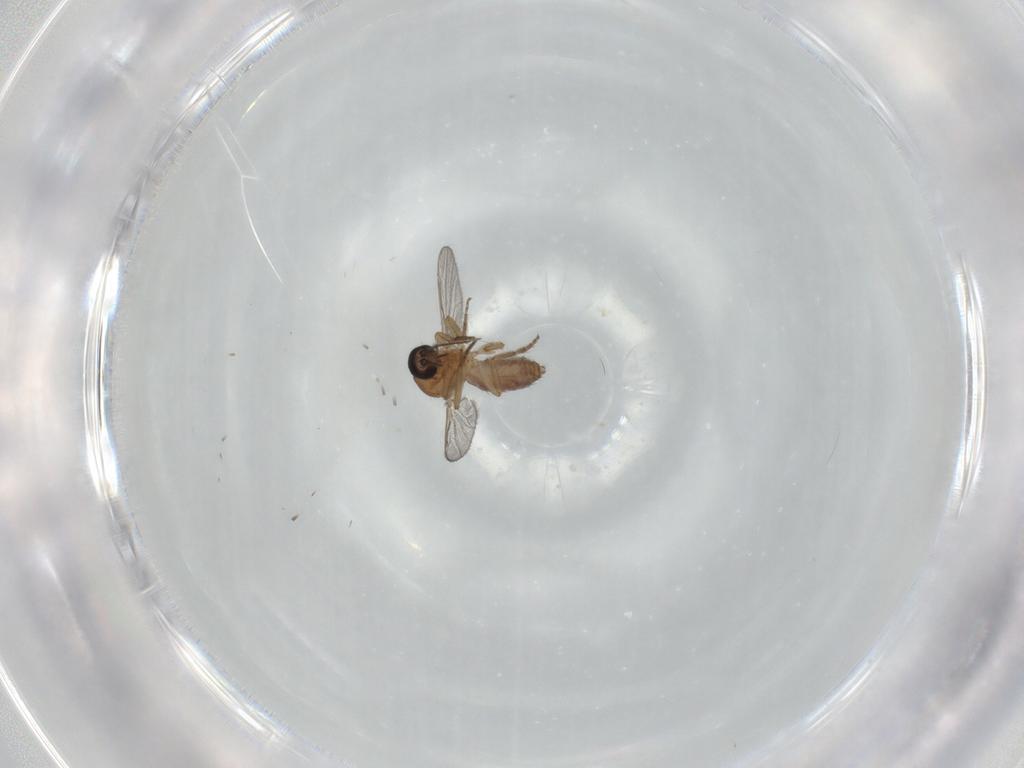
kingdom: Animalia
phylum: Arthropoda
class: Insecta
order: Diptera
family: Ceratopogonidae
